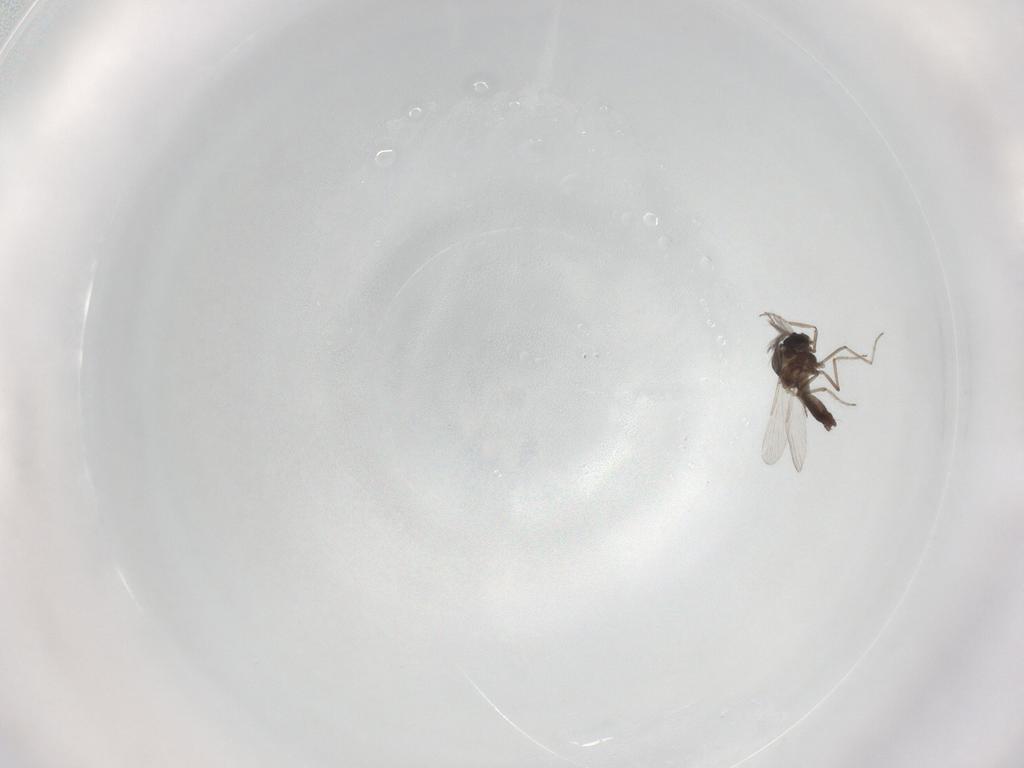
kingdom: Animalia
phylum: Arthropoda
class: Insecta
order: Diptera
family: Ceratopogonidae
